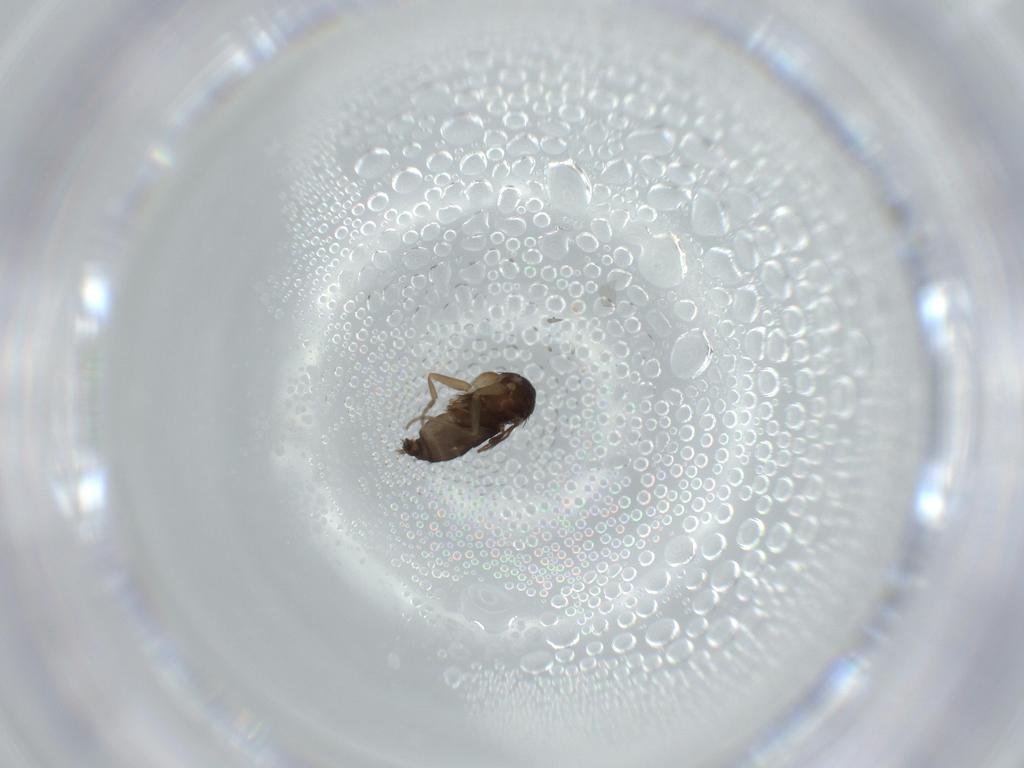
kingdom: Animalia
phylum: Arthropoda
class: Insecta
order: Diptera
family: Phoridae
